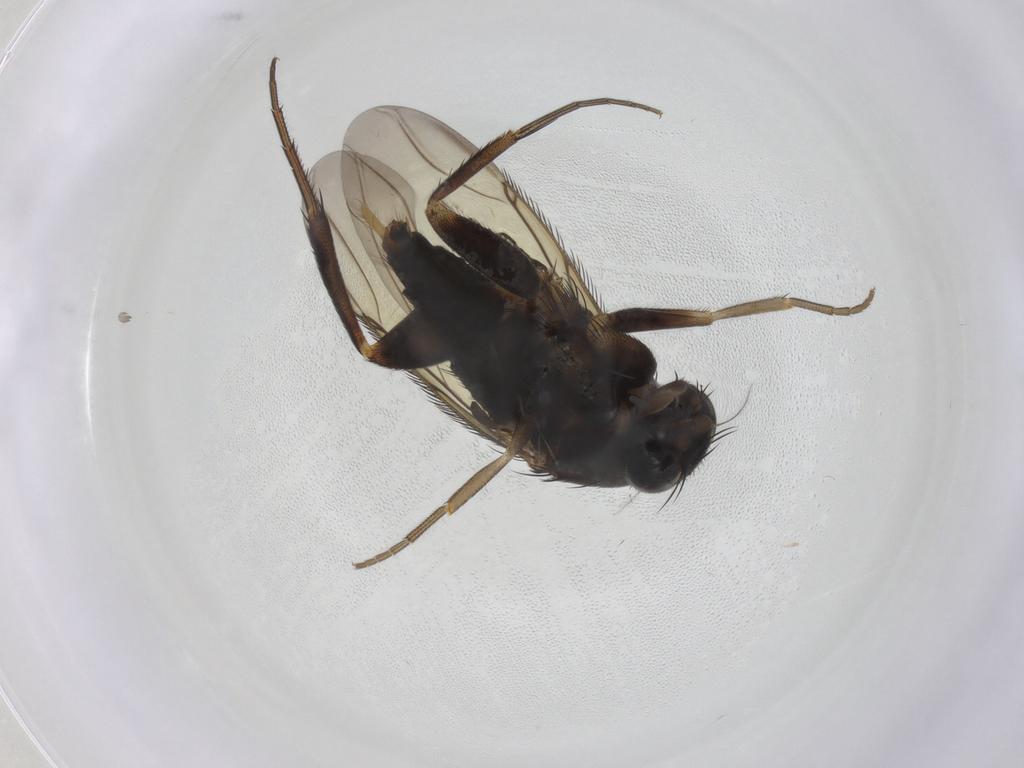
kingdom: Animalia
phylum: Arthropoda
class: Insecta
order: Diptera
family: Phoridae
